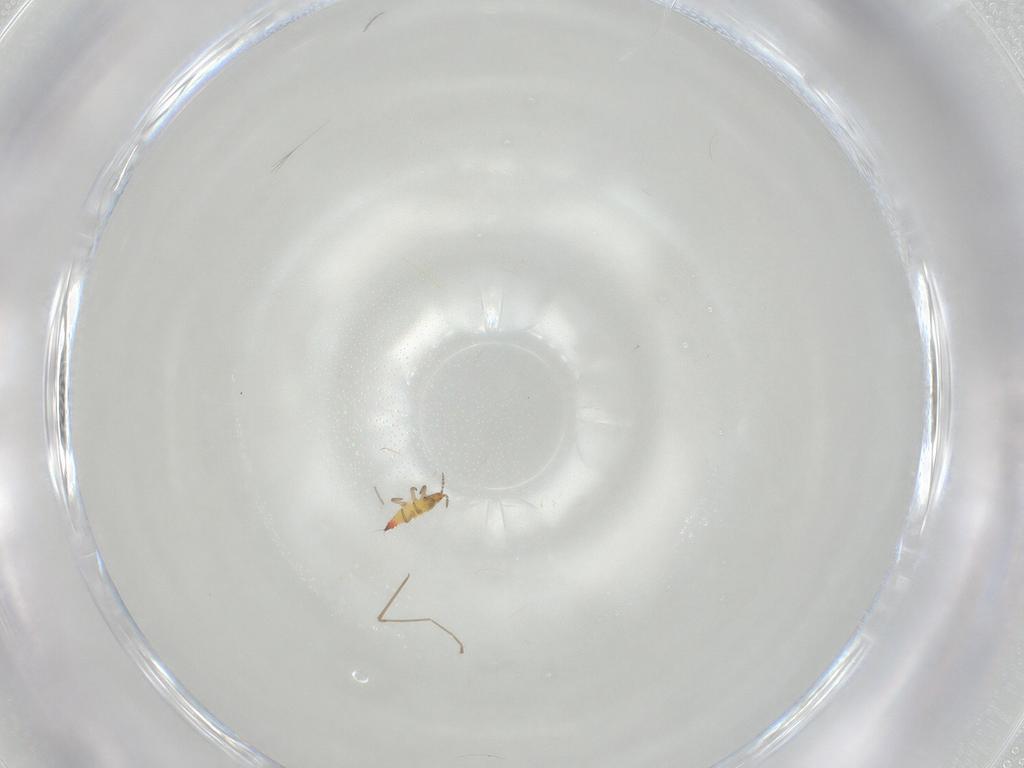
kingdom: Animalia
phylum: Arthropoda
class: Insecta
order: Thysanoptera
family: Phlaeothripidae
